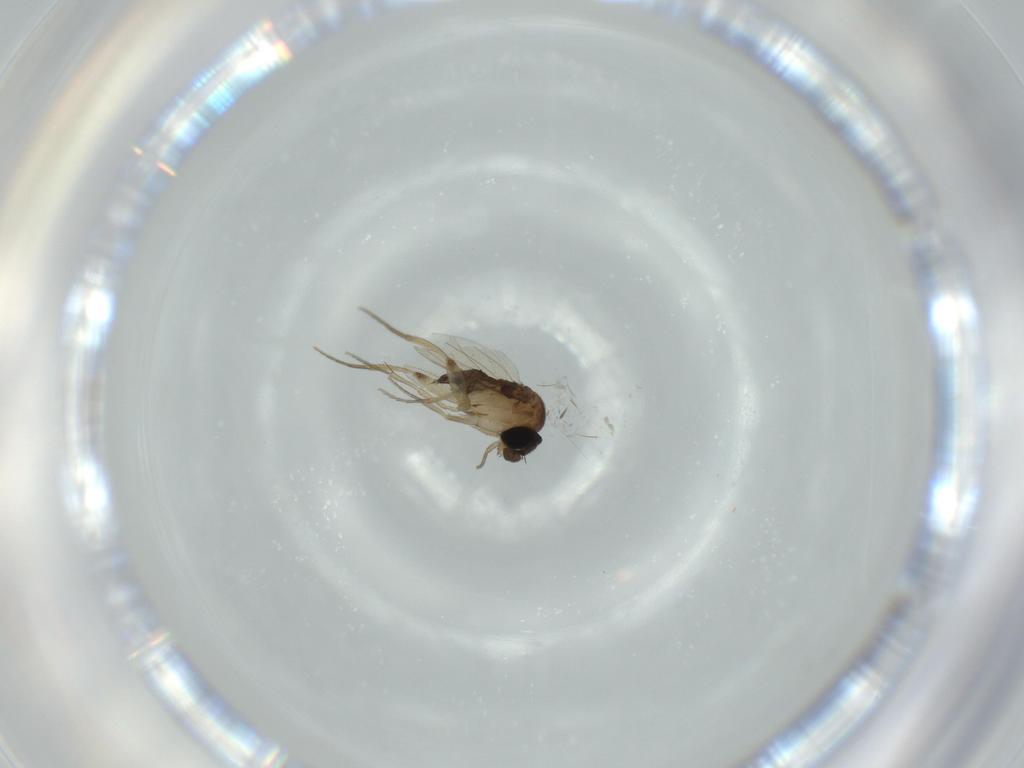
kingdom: Animalia
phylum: Arthropoda
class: Insecta
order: Diptera
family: Phoridae
